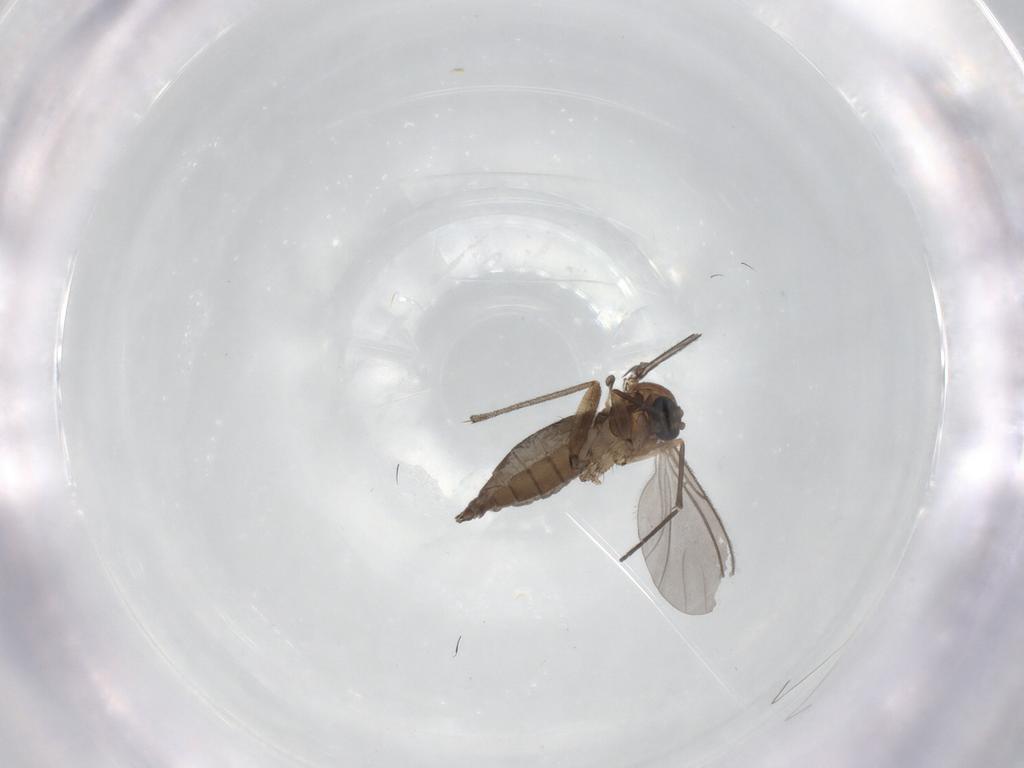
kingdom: Animalia
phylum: Arthropoda
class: Insecta
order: Diptera
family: Sciaridae
